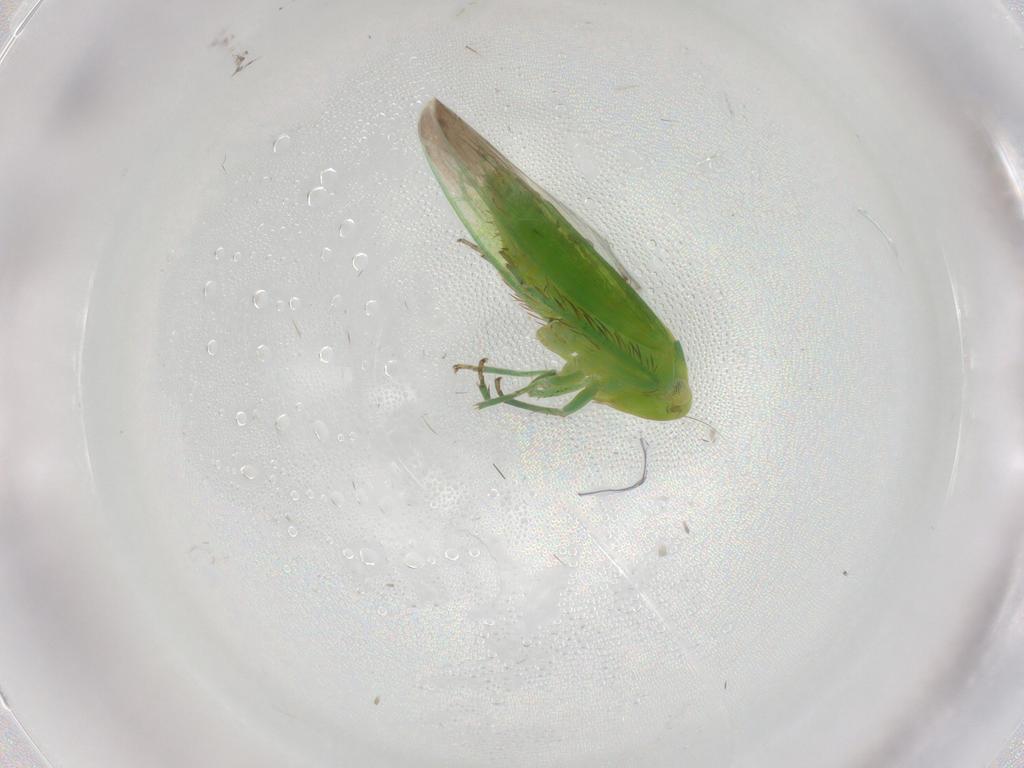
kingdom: Animalia
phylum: Arthropoda
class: Insecta
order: Hemiptera
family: Cicadellidae
